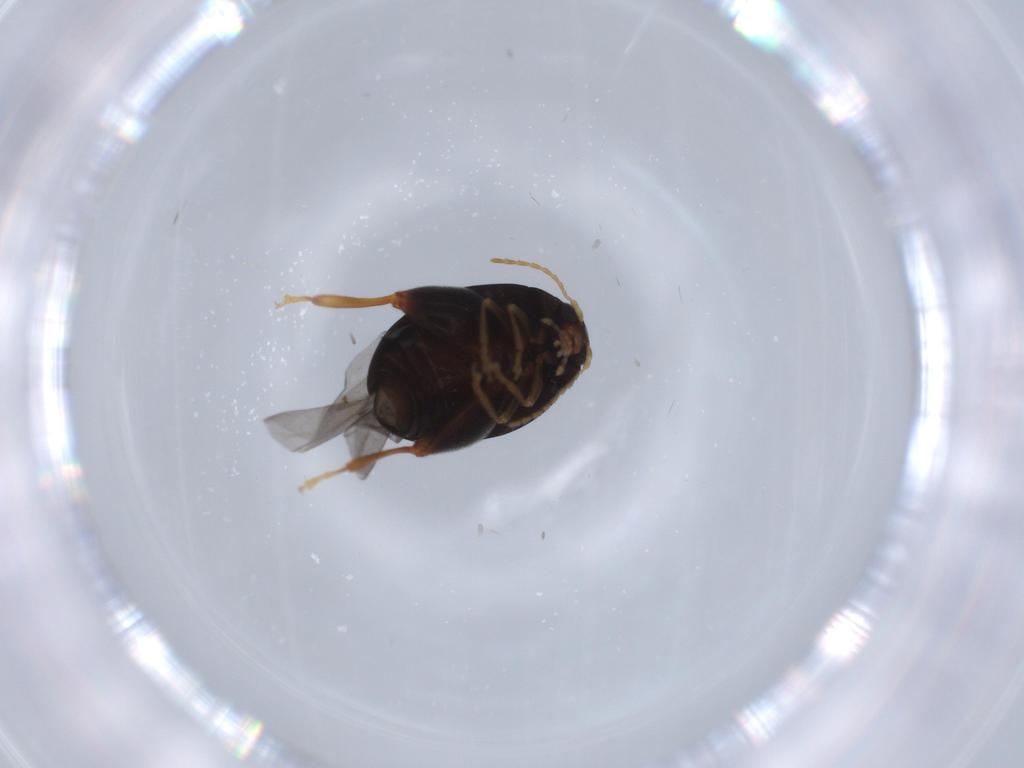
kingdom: Animalia
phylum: Arthropoda
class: Insecta
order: Coleoptera
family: Chrysomelidae
